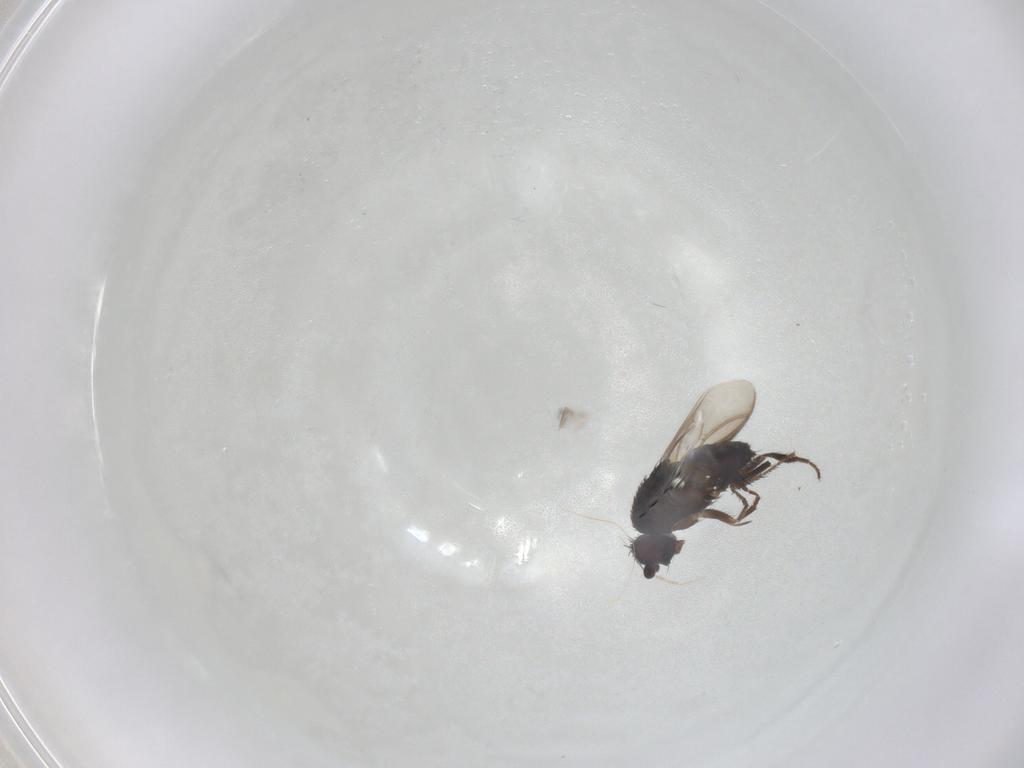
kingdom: Animalia
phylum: Arthropoda
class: Insecta
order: Diptera
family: Sphaeroceridae
